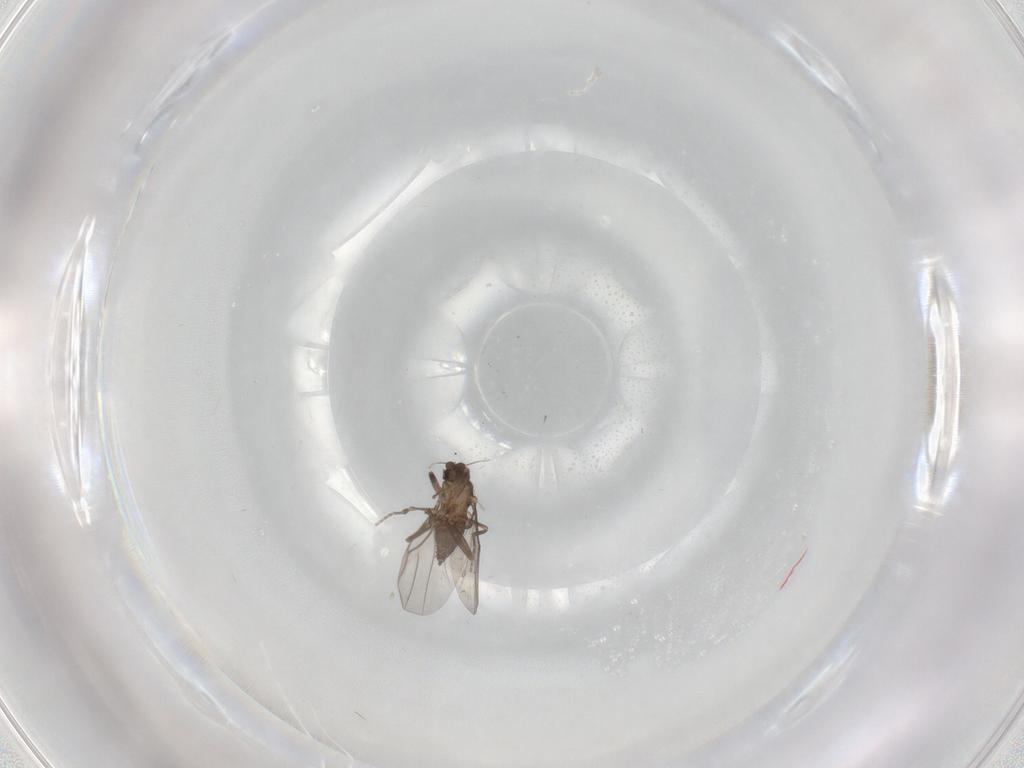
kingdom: Animalia
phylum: Arthropoda
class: Insecta
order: Diptera
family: Phoridae
